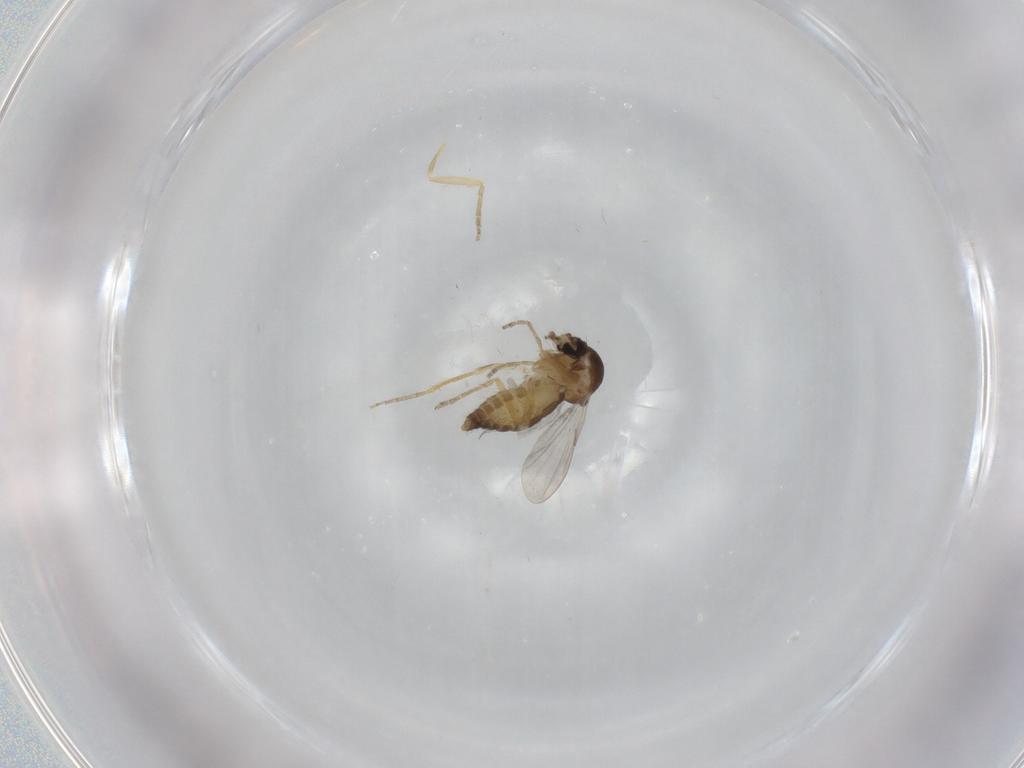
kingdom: Animalia
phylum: Arthropoda
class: Insecta
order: Diptera
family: Ceratopogonidae
